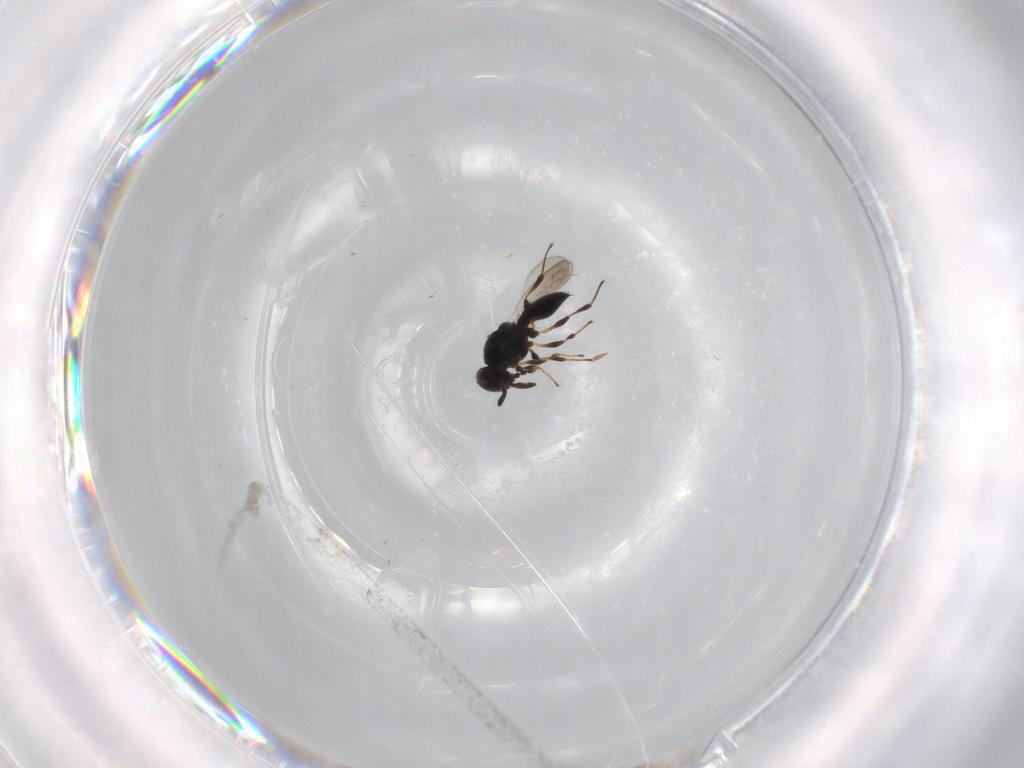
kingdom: Animalia
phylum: Arthropoda
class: Insecta
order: Hymenoptera
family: Platygastridae
